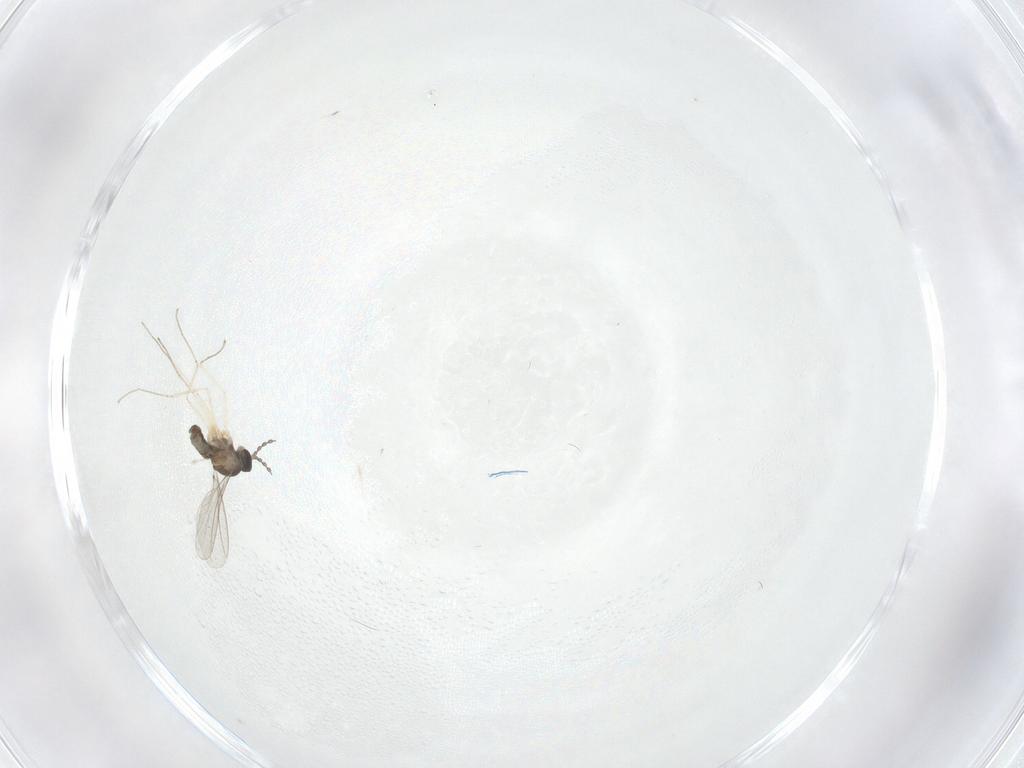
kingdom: Animalia
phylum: Arthropoda
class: Insecta
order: Diptera
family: Cecidomyiidae
